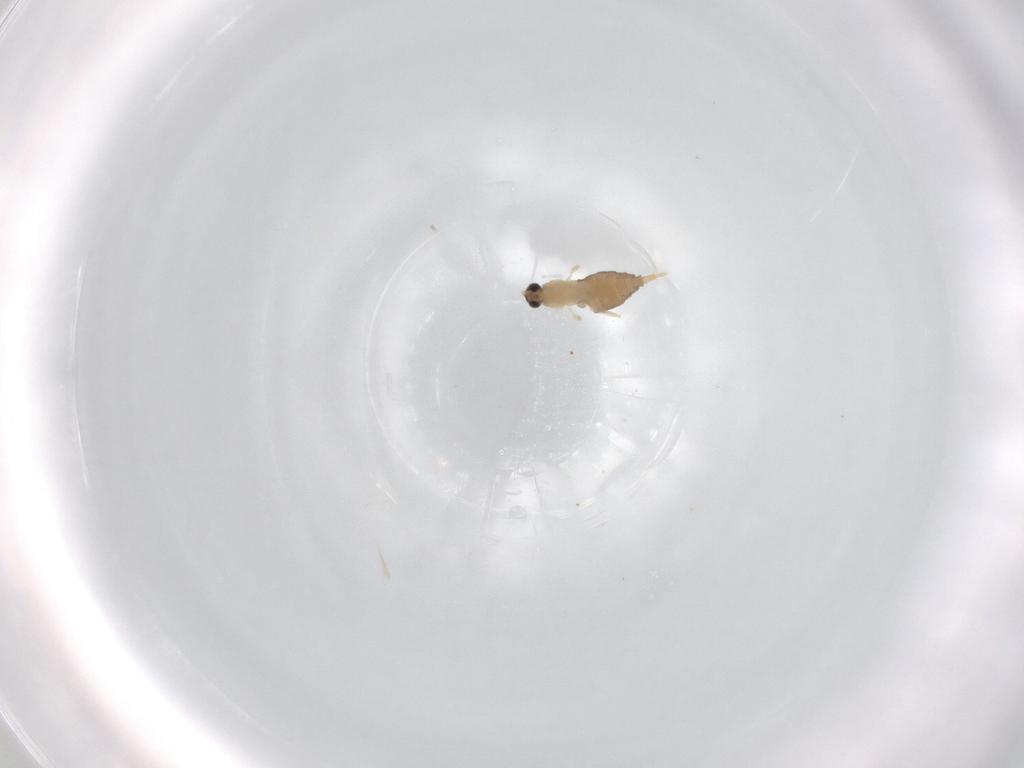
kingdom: Animalia
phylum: Arthropoda
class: Insecta
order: Diptera
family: Cecidomyiidae
